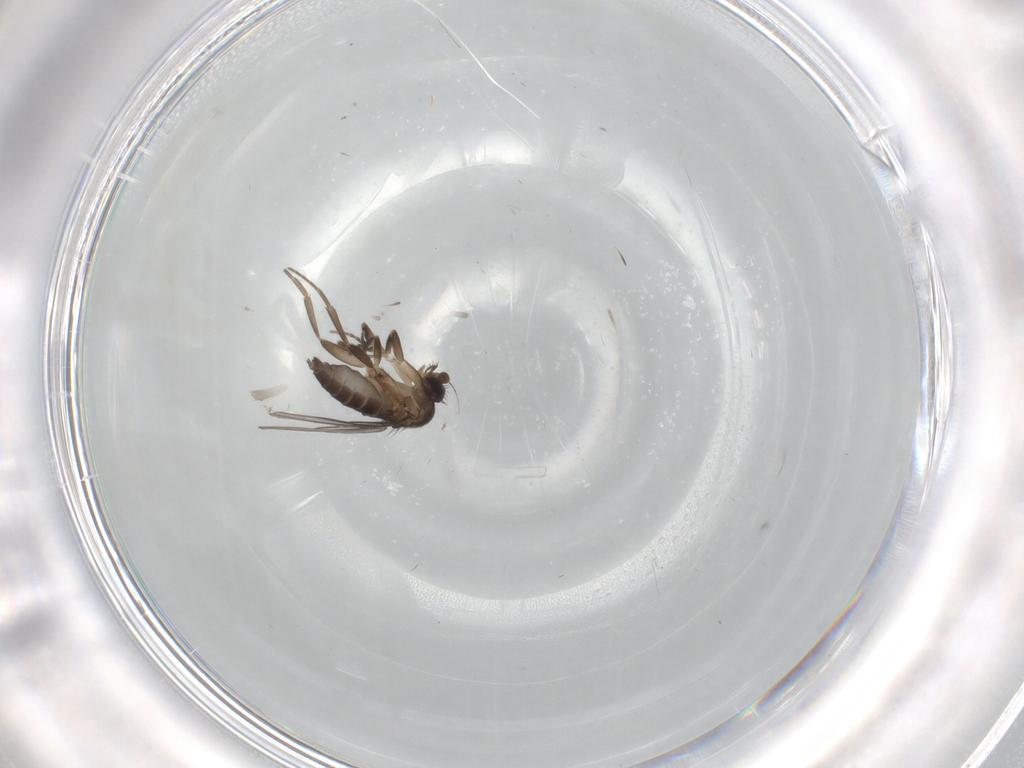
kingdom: Animalia
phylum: Arthropoda
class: Insecta
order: Diptera
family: Phoridae
